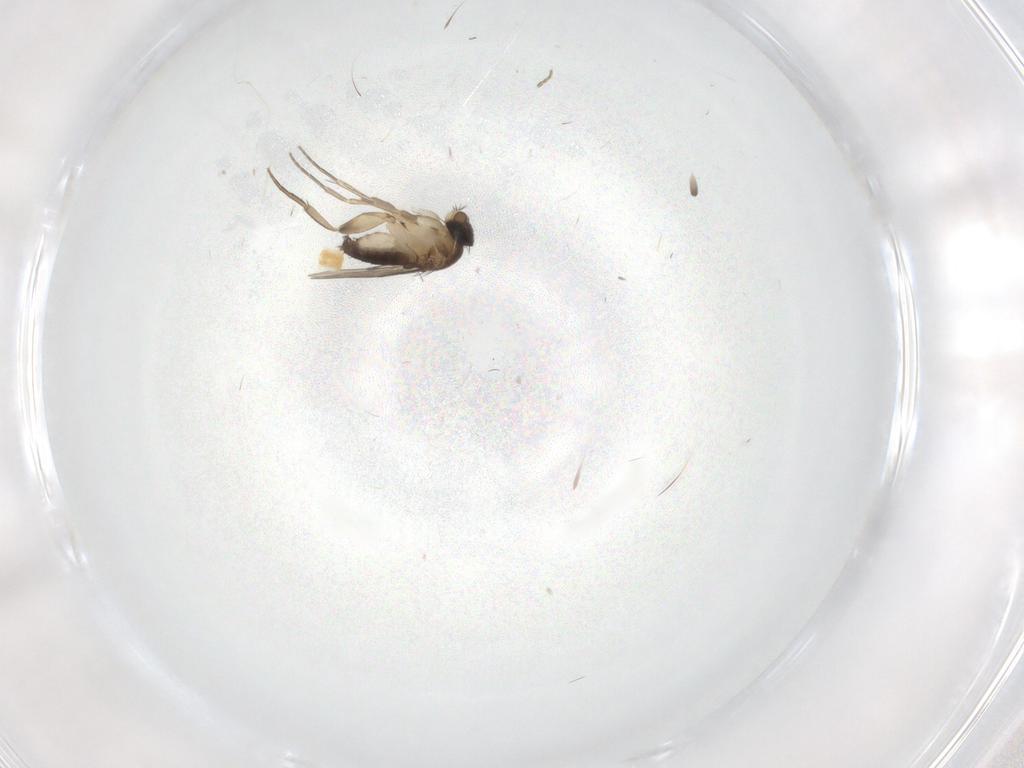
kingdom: Animalia
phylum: Arthropoda
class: Insecta
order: Diptera
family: Phoridae
